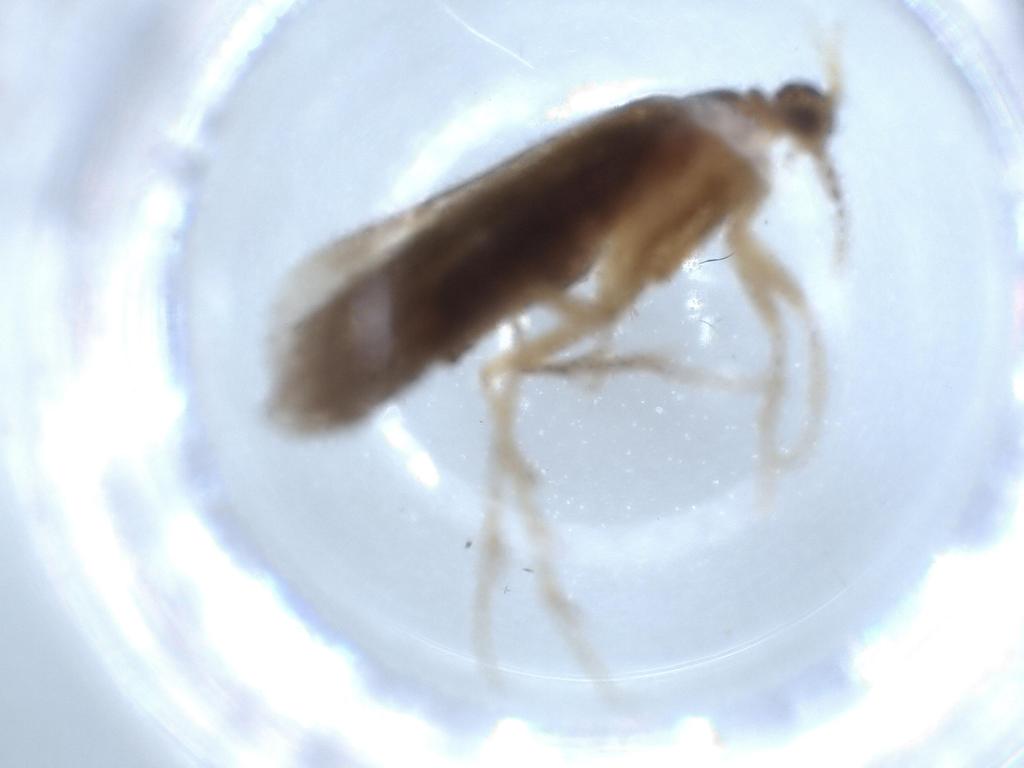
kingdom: Animalia
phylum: Arthropoda
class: Insecta
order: Trichoptera
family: Polycentropodidae
